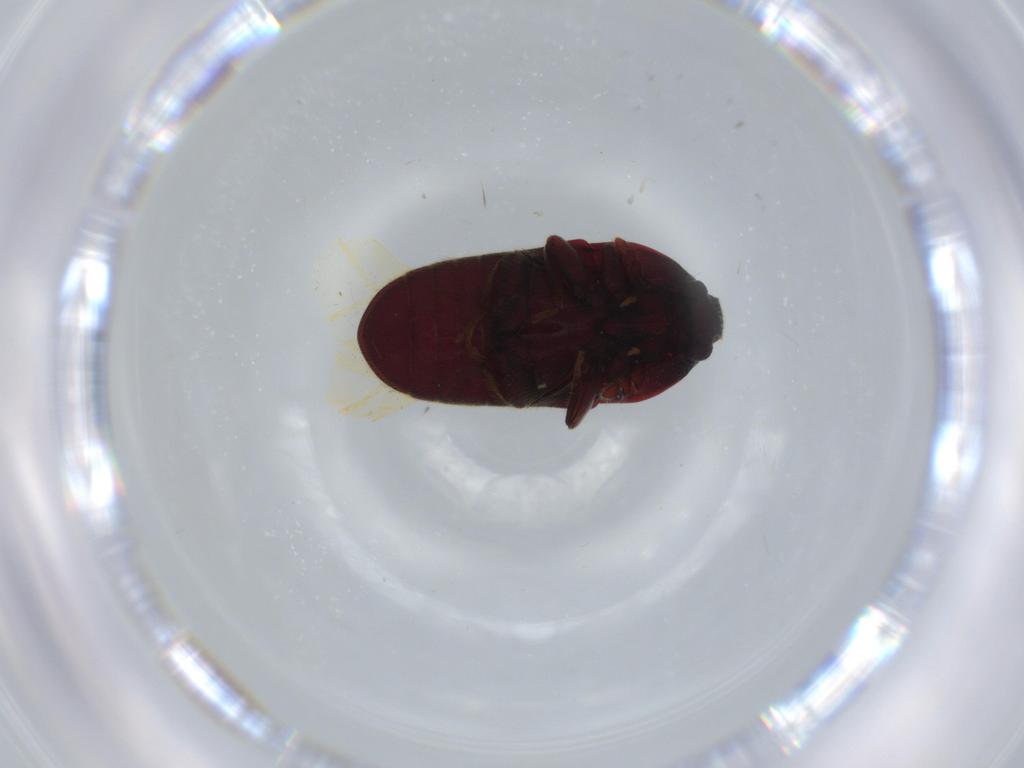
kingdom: Animalia
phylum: Arthropoda
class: Insecta
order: Coleoptera
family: Throscidae
